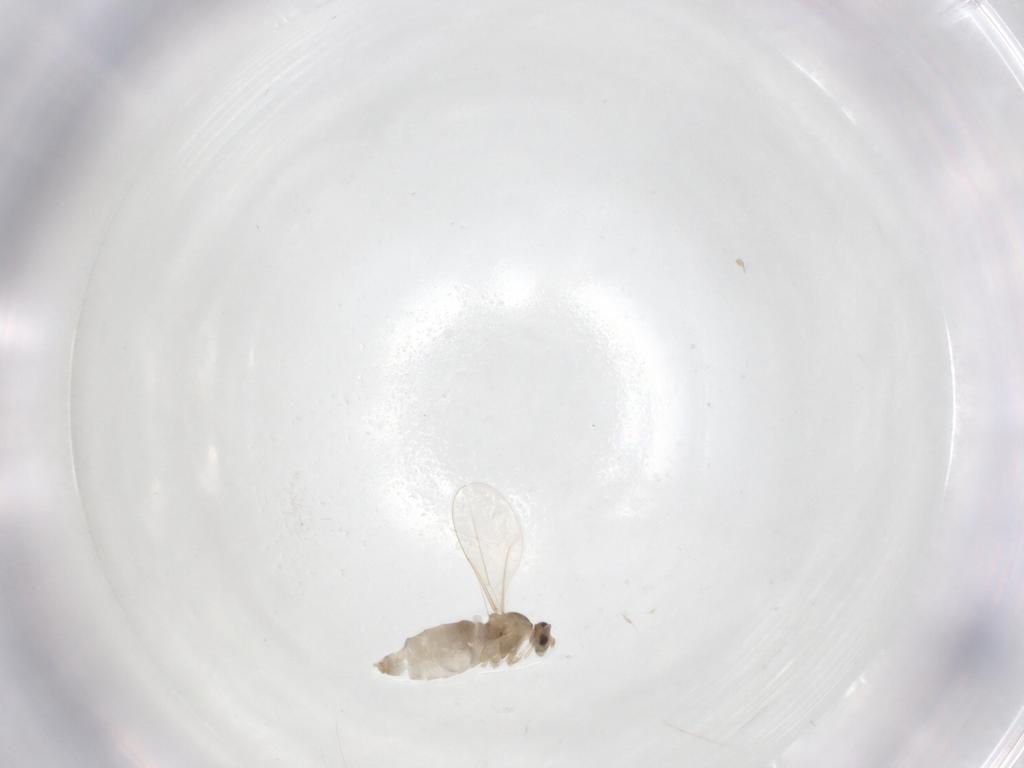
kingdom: Animalia
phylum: Arthropoda
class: Insecta
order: Diptera
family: Cecidomyiidae
